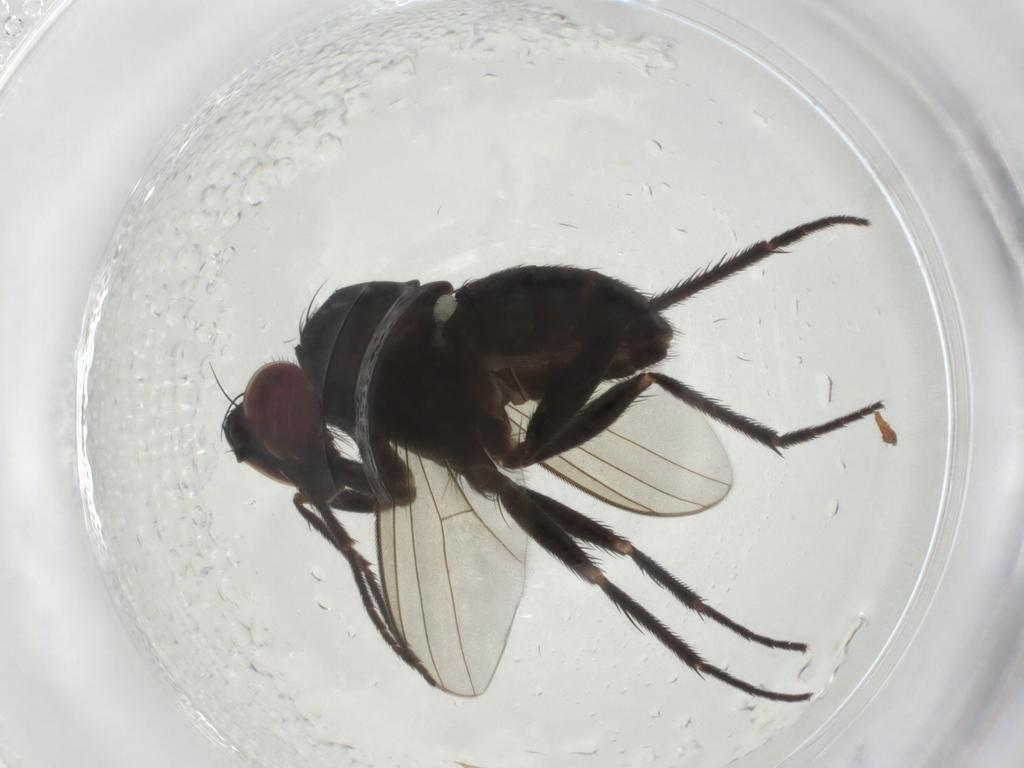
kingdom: Animalia
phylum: Arthropoda
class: Insecta
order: Diptera
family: Dolichopodidae
